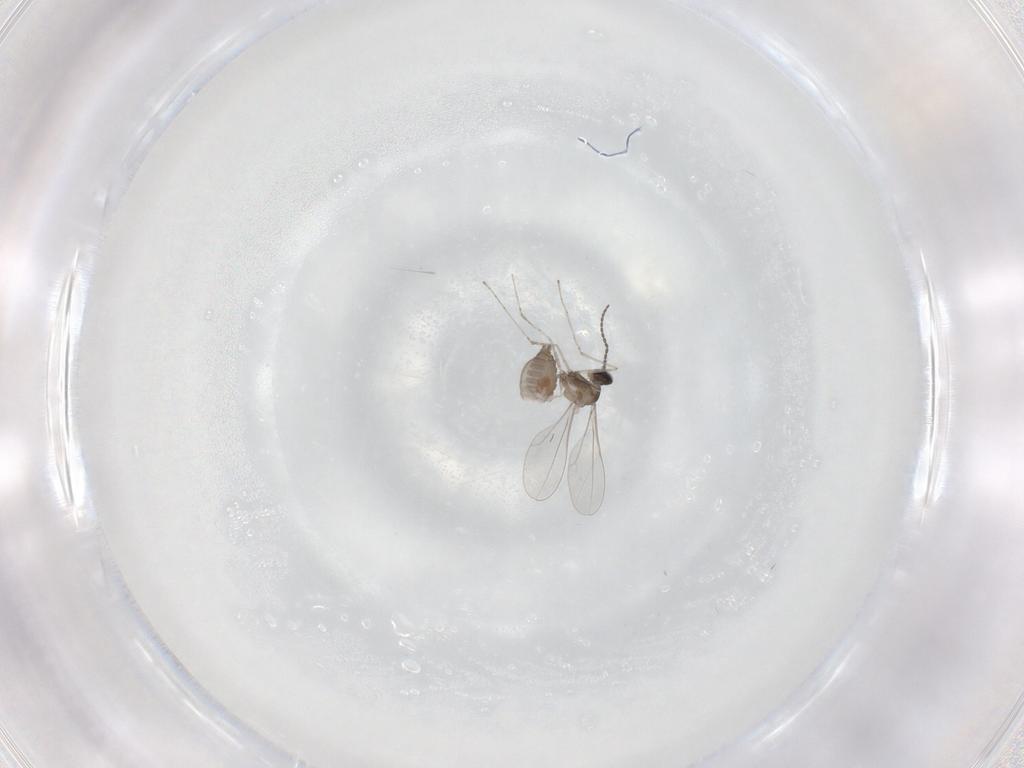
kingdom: Animalia
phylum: Arthropoda
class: Insecta
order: Diptera
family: Cecidomyiidae
